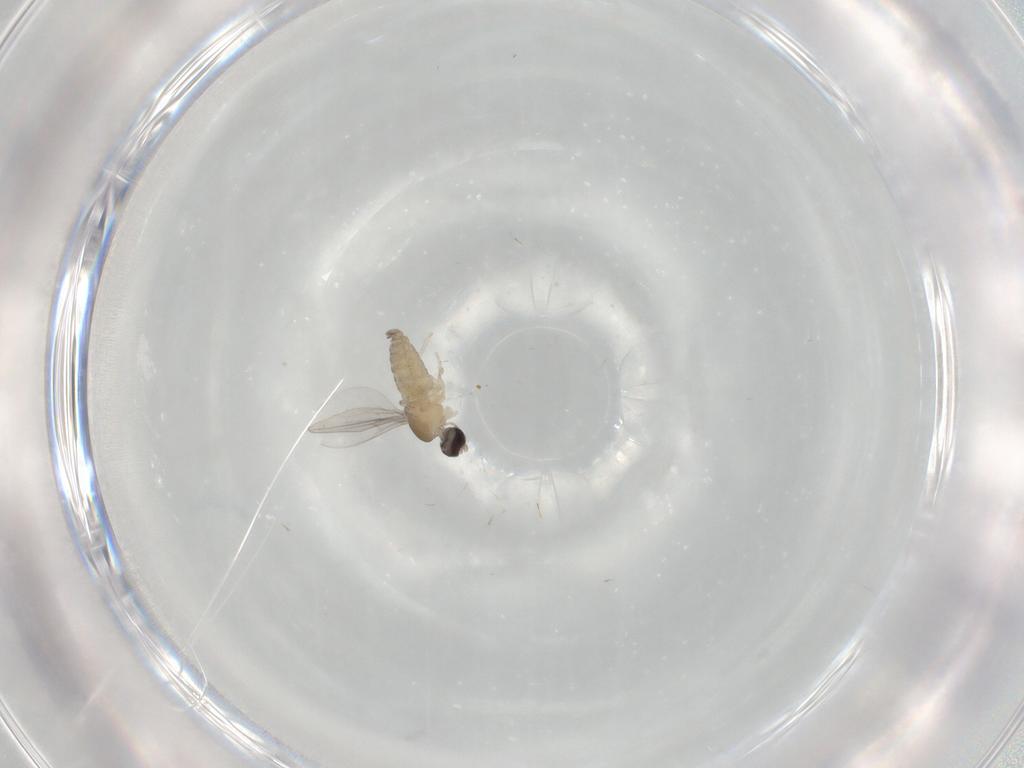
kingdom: Animalia
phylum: Arthropoda
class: Insecta
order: Diptera
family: Cecidomyiidae
